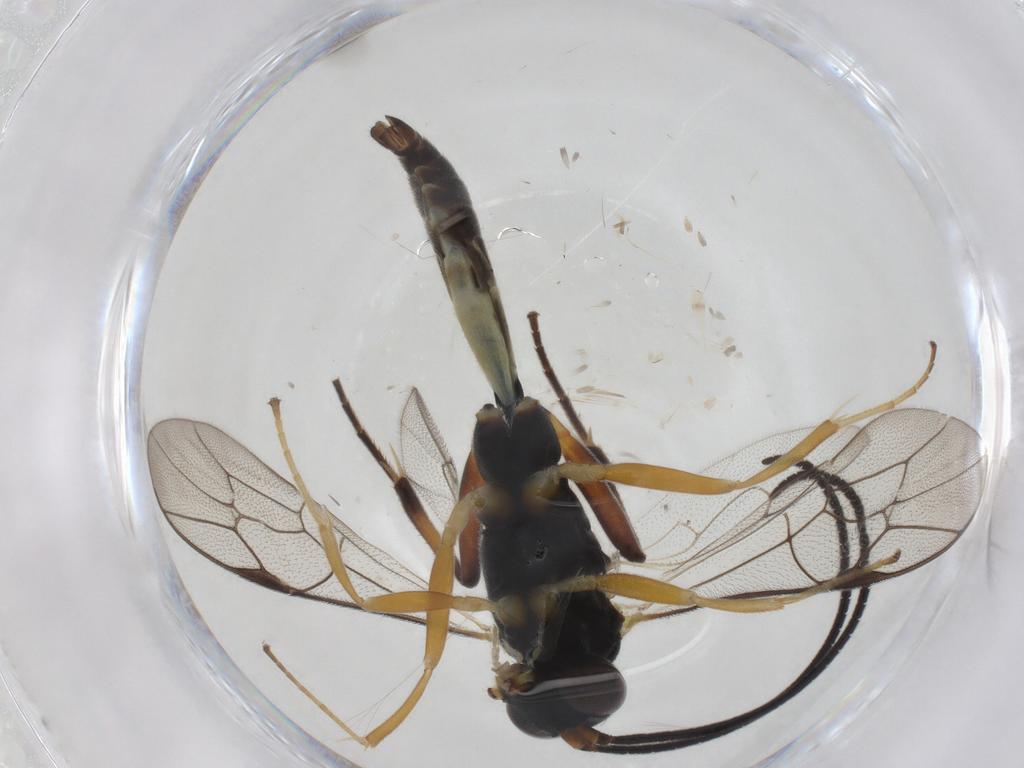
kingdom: Animalia
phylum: Arthropoda
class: Insecta
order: Hymenoptera
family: Ichneumonidae
